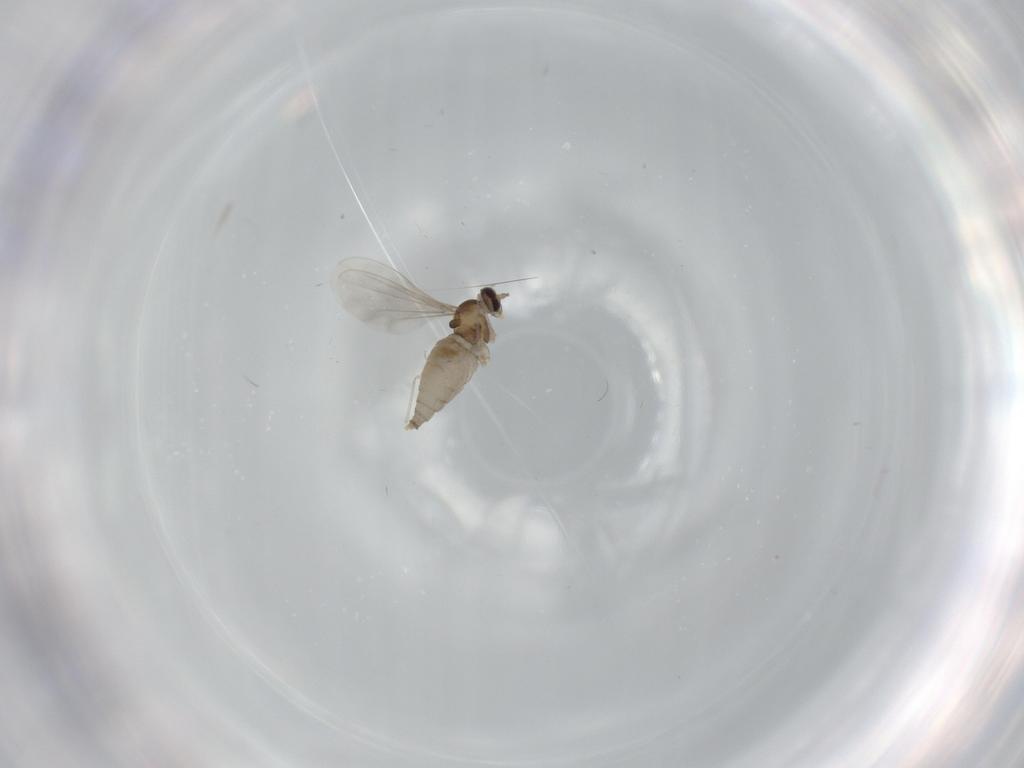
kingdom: Animalia
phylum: Arthropoda
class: Insecta
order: Diptera
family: Cecidomyiidae
